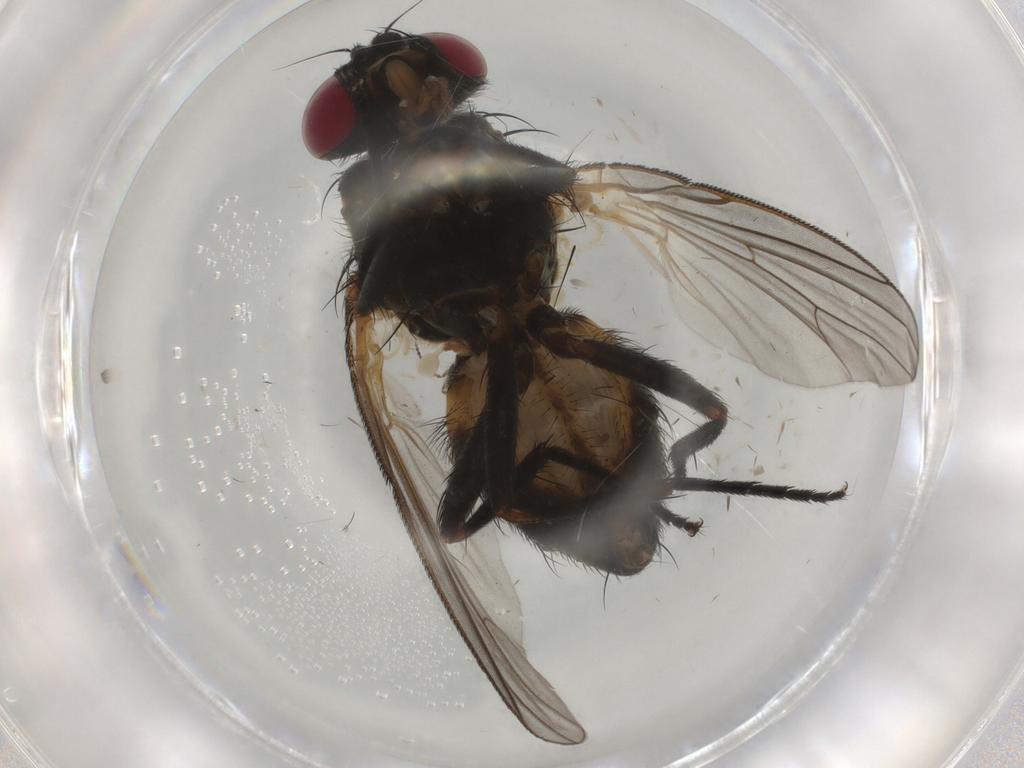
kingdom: Animalia
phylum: Arthropoda
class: Insecta
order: Diptera
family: Fannia
